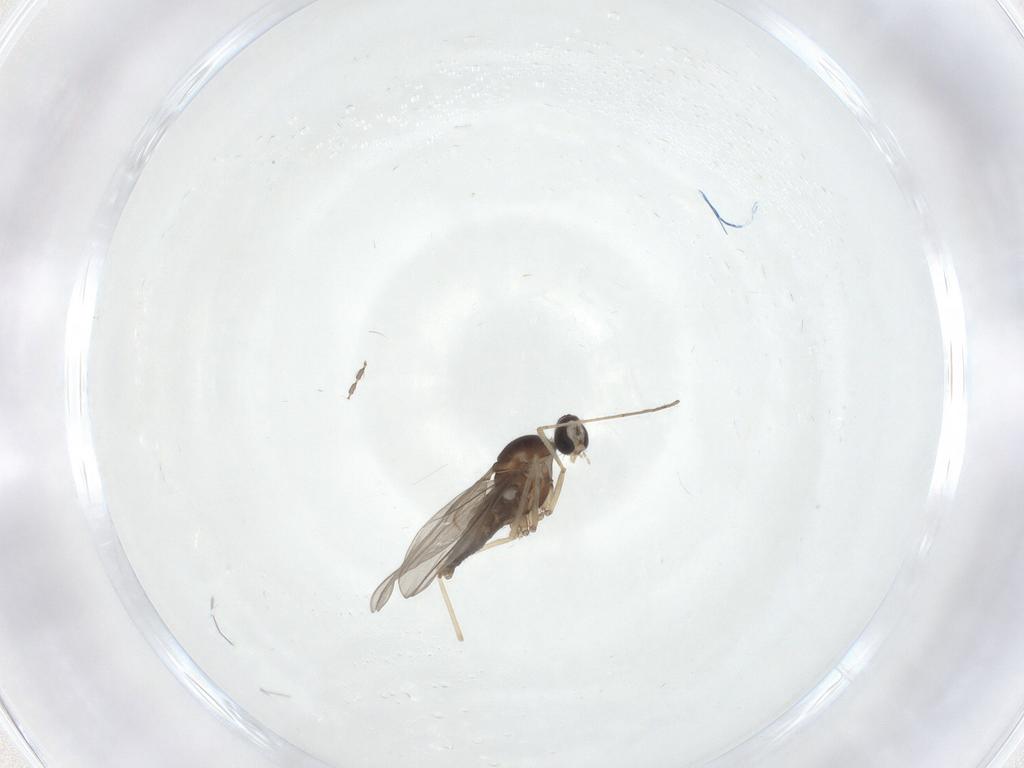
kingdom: Animalia
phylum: Arthropoda
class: Insecta
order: Diptera
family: Cecidomyiidae
